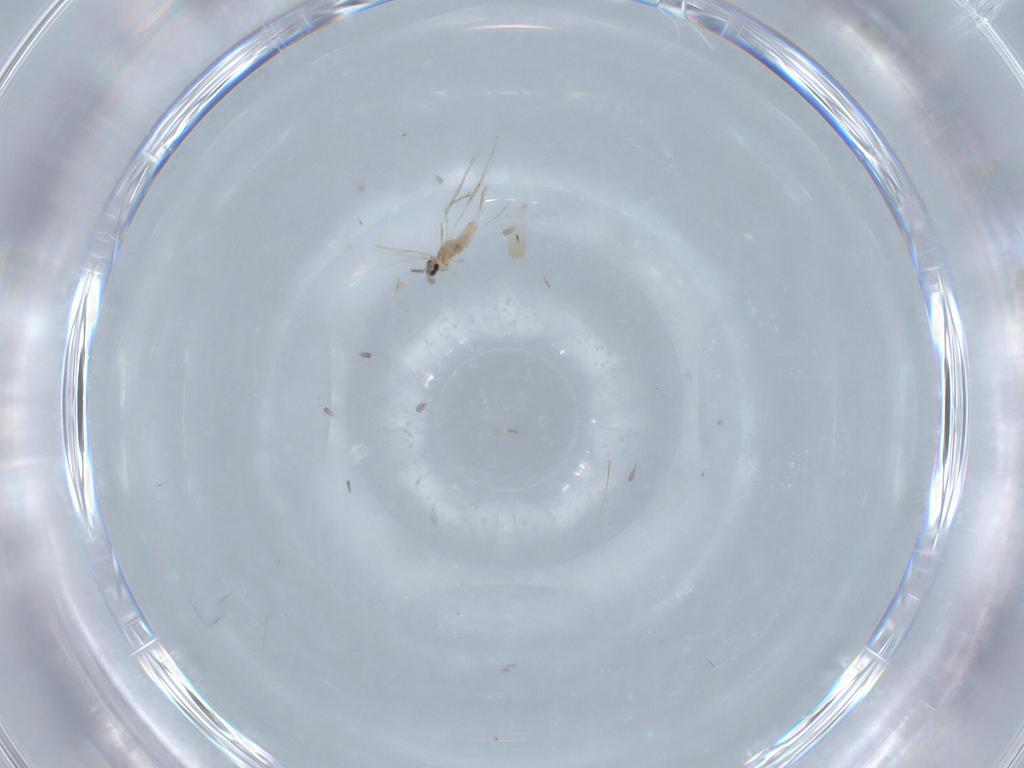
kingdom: Animalia
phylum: Arthropoda
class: Insecta
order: Diptera
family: Cecidomyiidae
